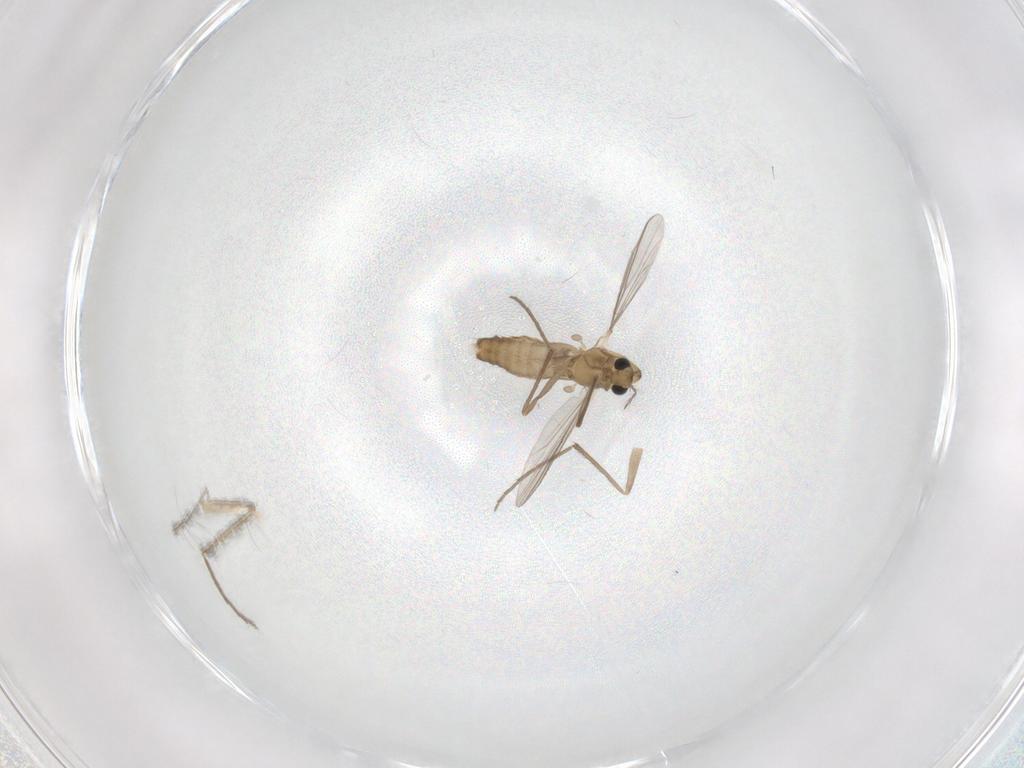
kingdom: Animalia
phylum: Arthropoda
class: Insecta
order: Diptera
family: Chironomidae
